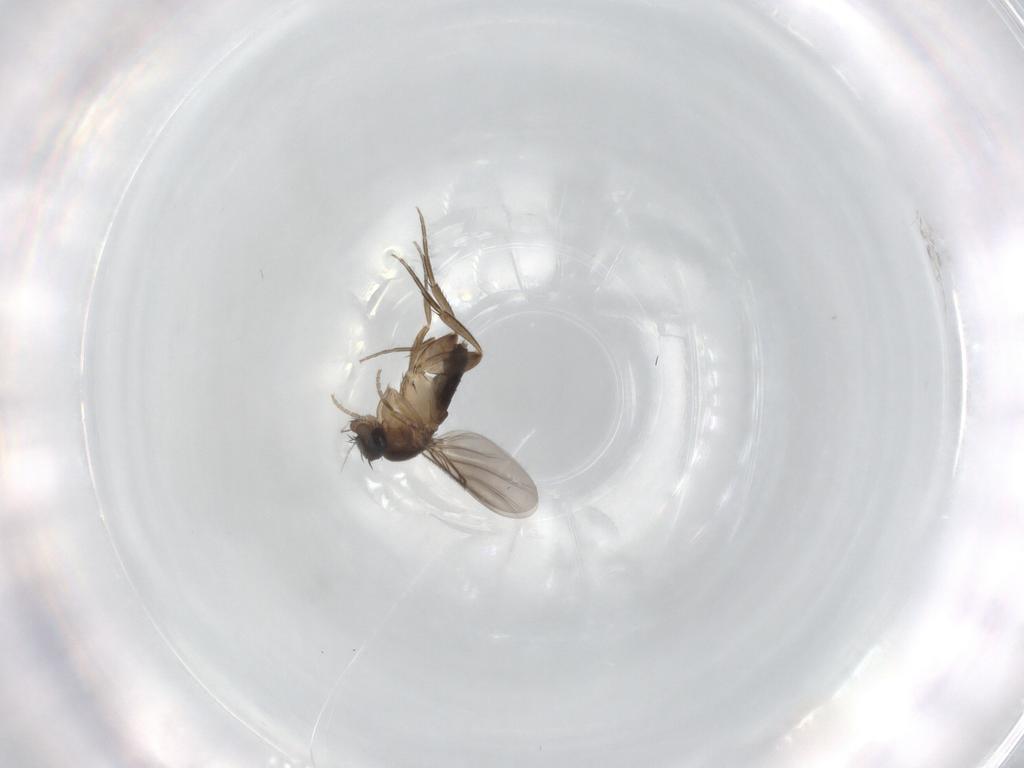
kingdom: Animalia
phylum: Arthropoda
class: Insecta
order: Diptera
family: Phoridae
